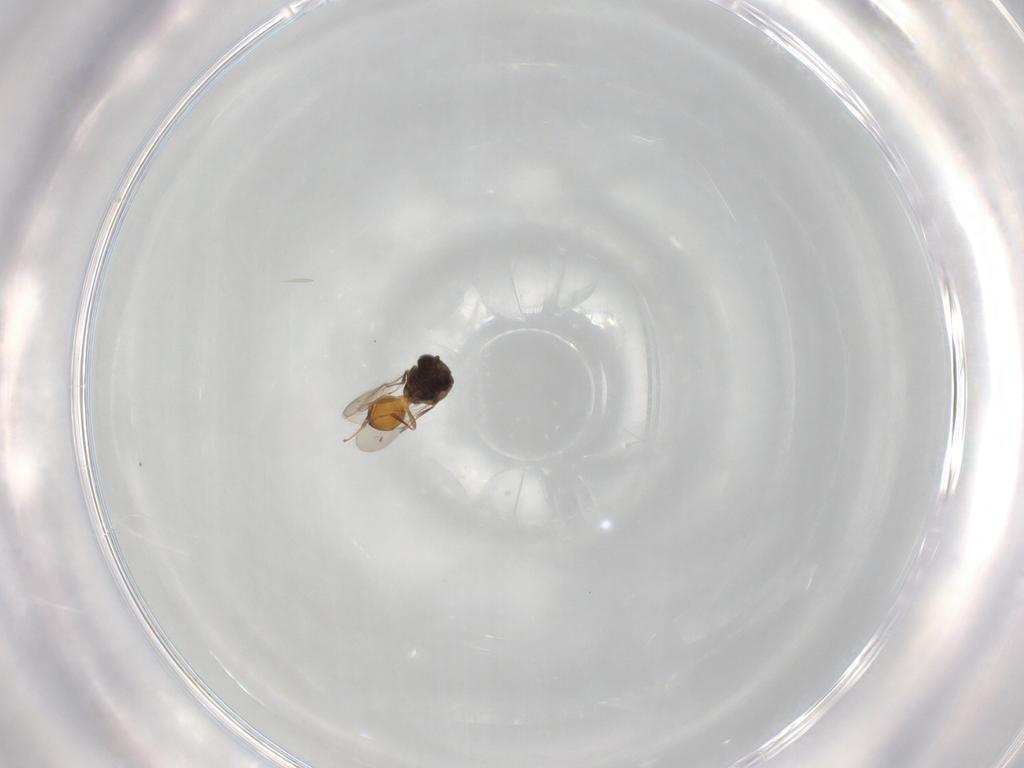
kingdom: Animalia
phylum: Arthropoda
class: Arachnida
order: Araneae
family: Pholcidae
